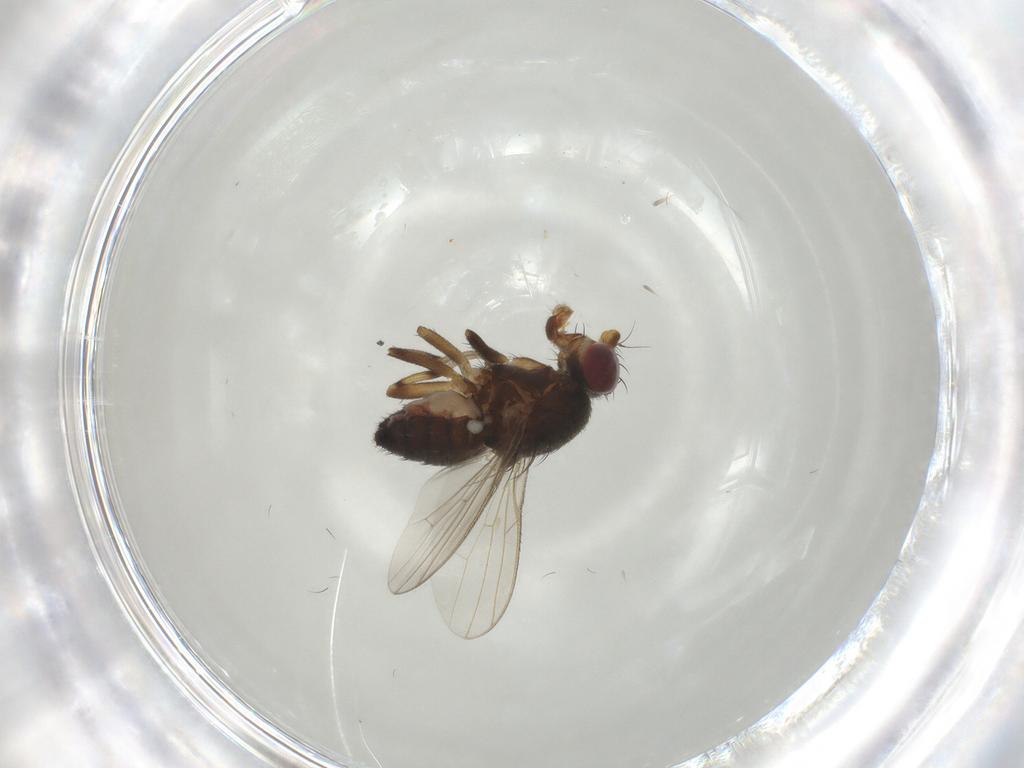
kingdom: Animalia
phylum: Arthropoda
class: Insecta
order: Diptera
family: Heleomyzidae
